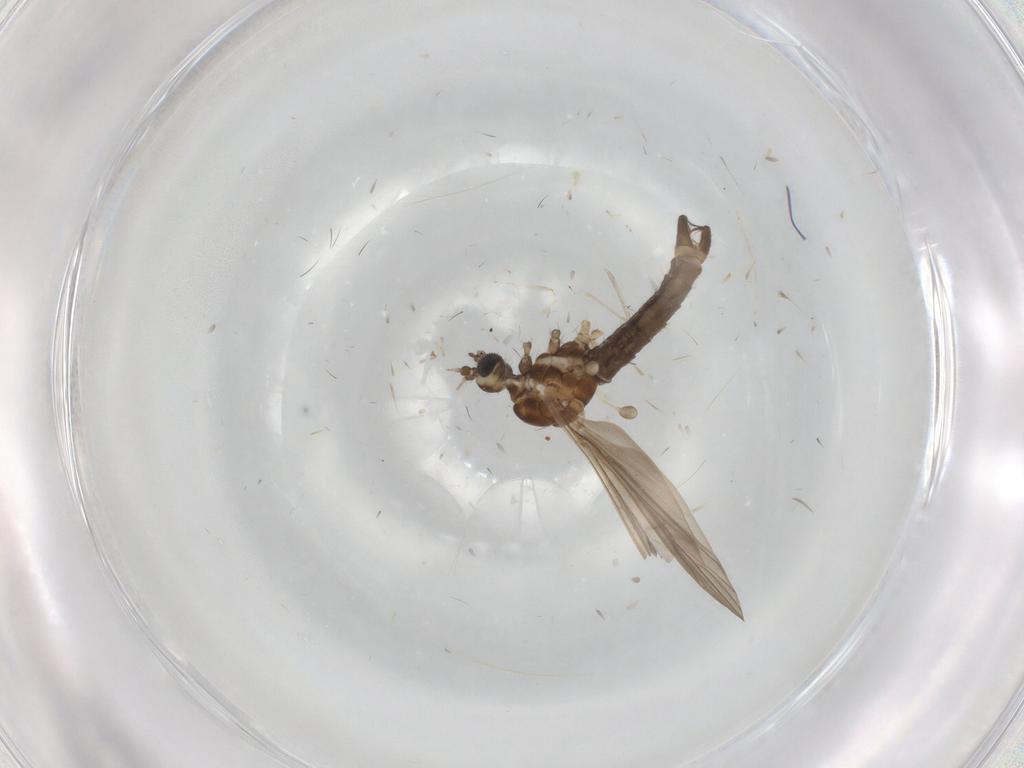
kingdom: Animalia
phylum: Arthropoda
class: Insecta
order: Diptera
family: Limoniidae
